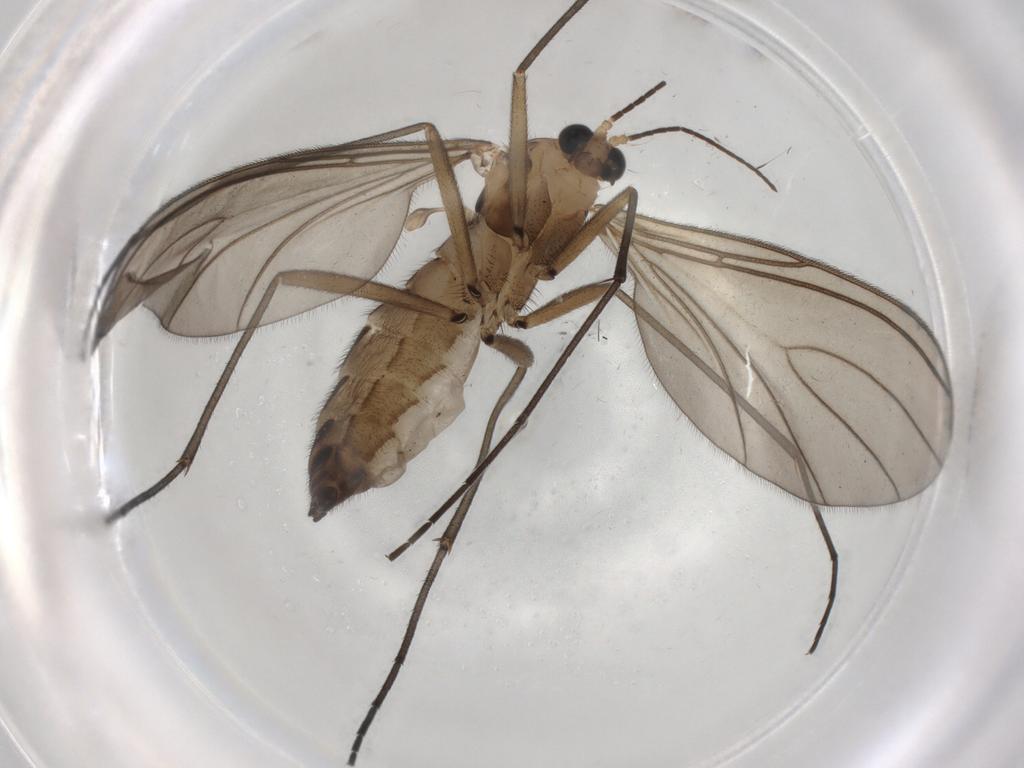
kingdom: Animalia
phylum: Arthropoda
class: Insecta
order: Diptera
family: Sciaridae
